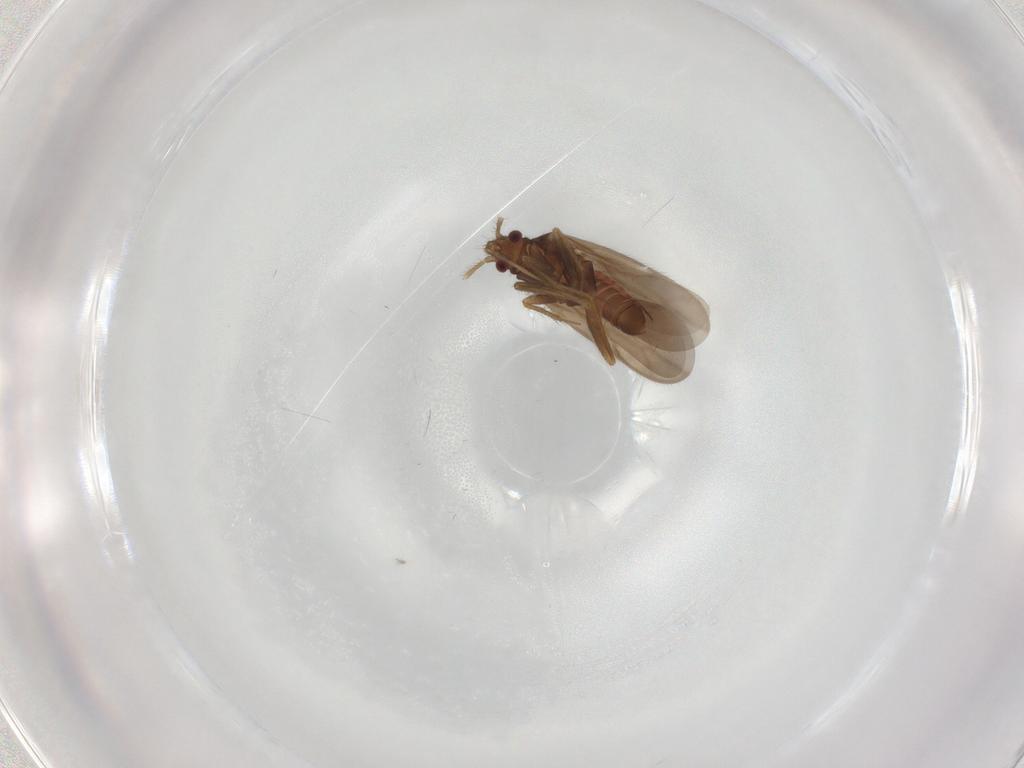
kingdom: Animalia
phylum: Arthropoda
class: Insecta
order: Hemiptera
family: Ceratocombidae
